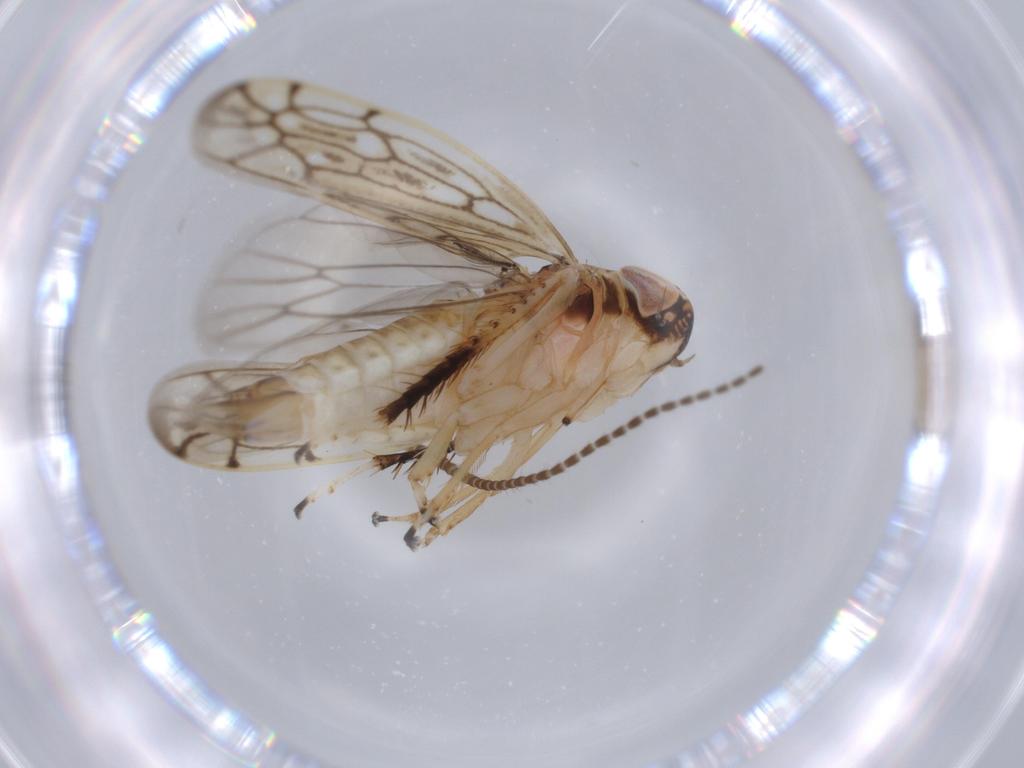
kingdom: Animalia
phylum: Arthropoda
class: Insecta
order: Hemiptera
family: Cicadellidae
